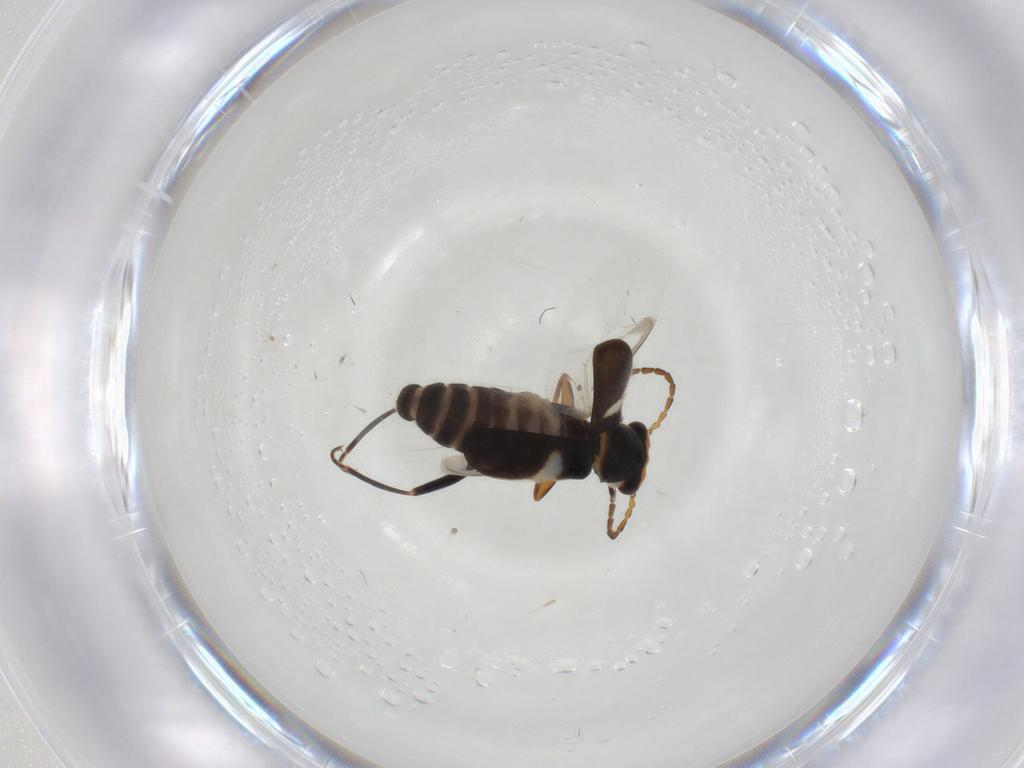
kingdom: Animalia
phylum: Arthropoda
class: Insecta
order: Coleoptera
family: Melyridae
